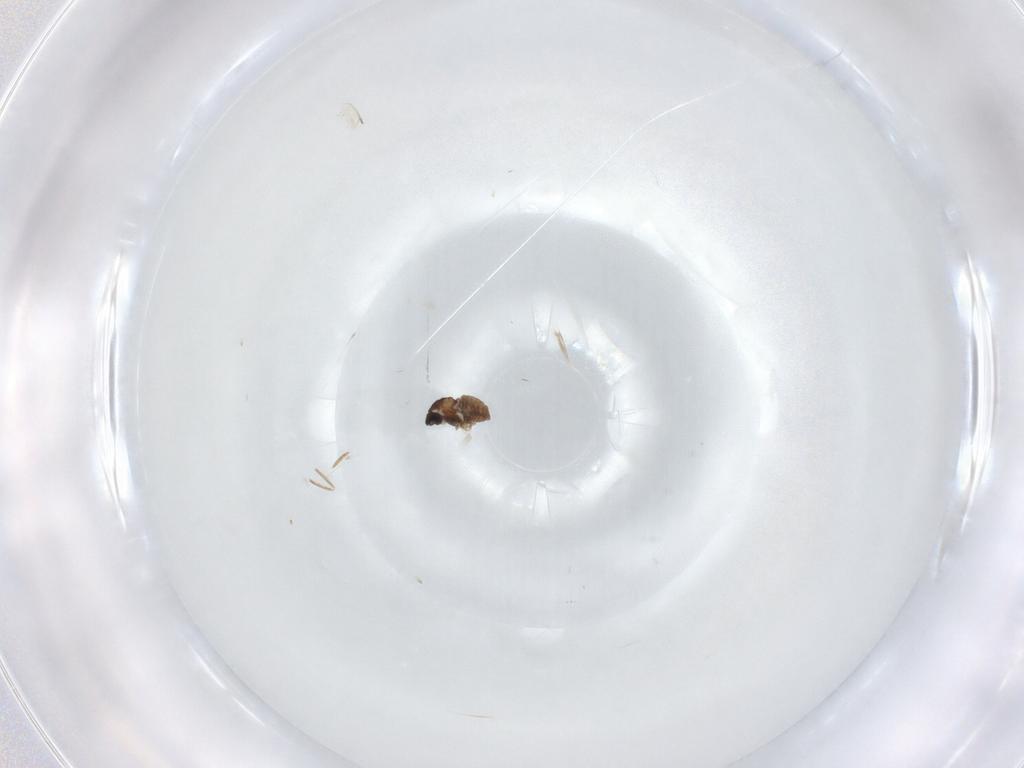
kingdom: Animalia
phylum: Arthropoda
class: Insecta
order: Diptera
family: Cecidomyiidae
